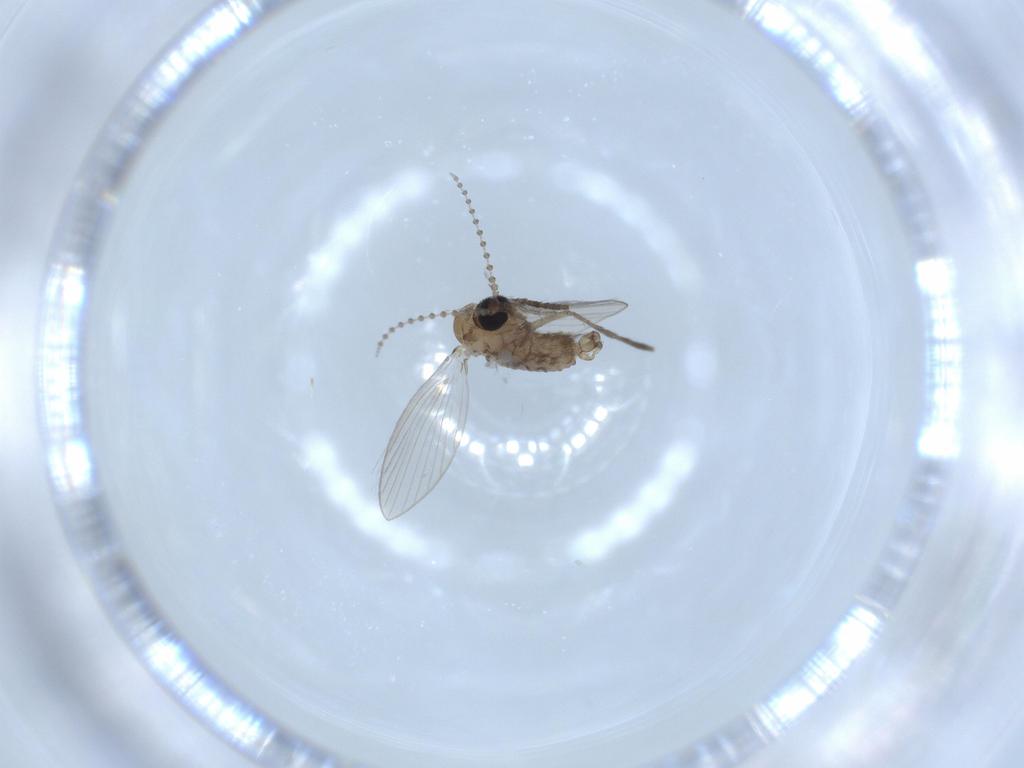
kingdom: Animalia
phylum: Arthropoda
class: Insecta
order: Diptera
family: Psychodidae
